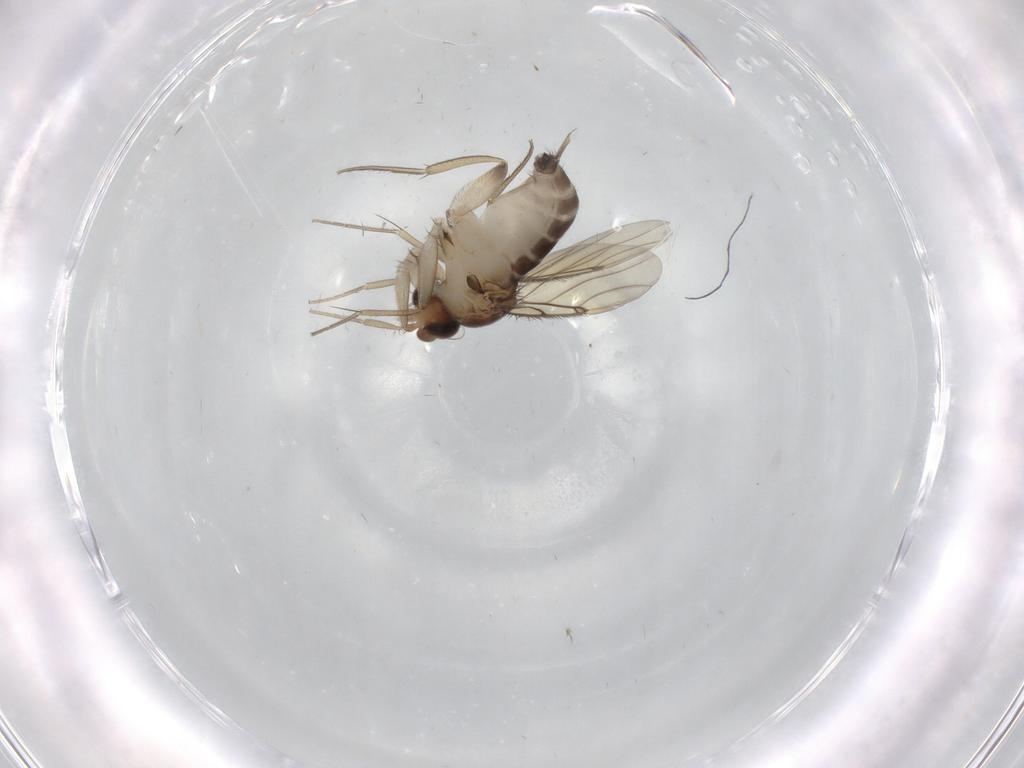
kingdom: Animalia
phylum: Arthropoda
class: Insecta
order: Diptera
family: Phoridae
